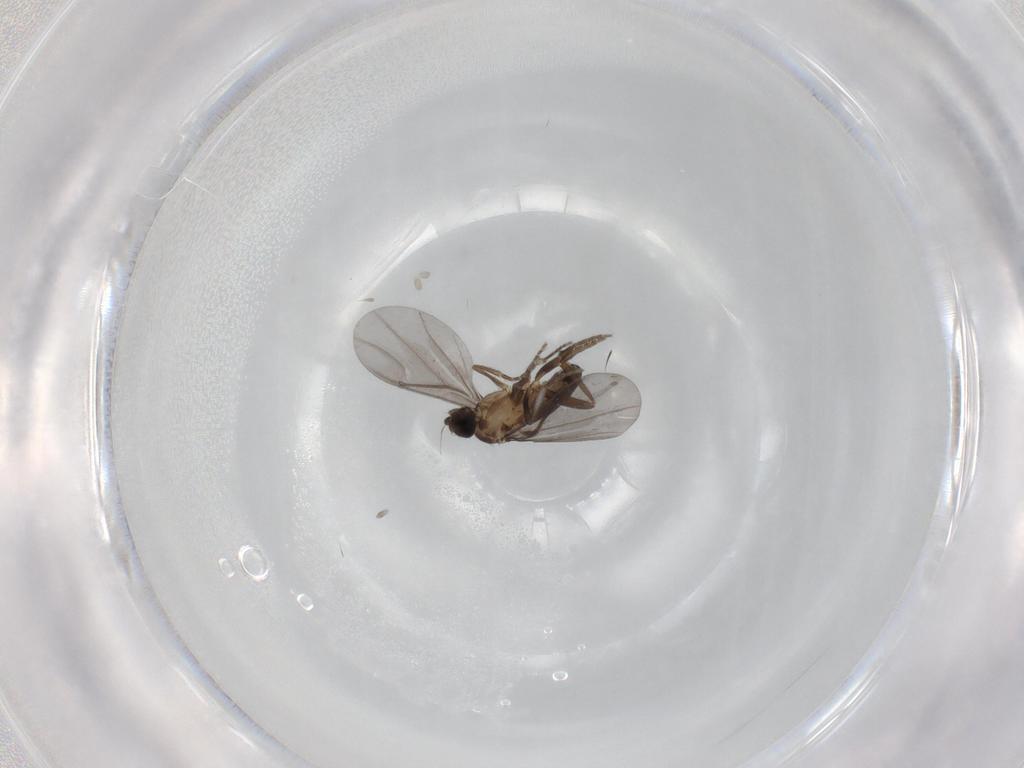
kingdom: Animalia
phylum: Arthropoda
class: Insecta
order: Diptera
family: Phoridae
